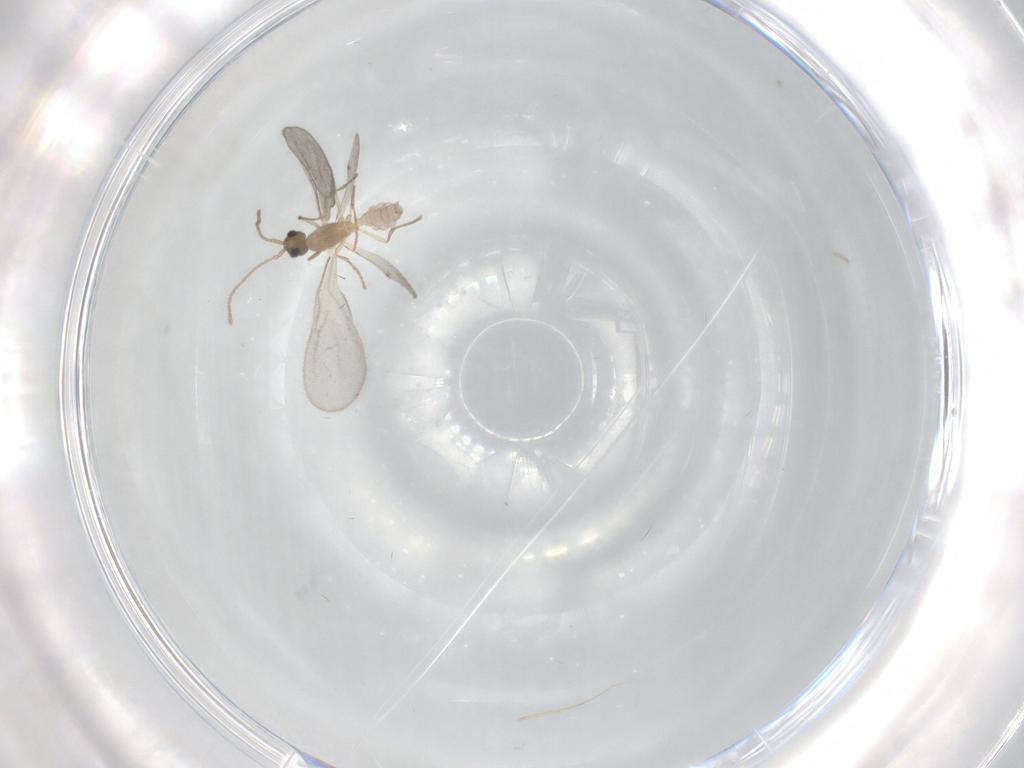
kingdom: Animalia
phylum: Arthropoda
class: Insecta
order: Hymenoptera
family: Formicidae
